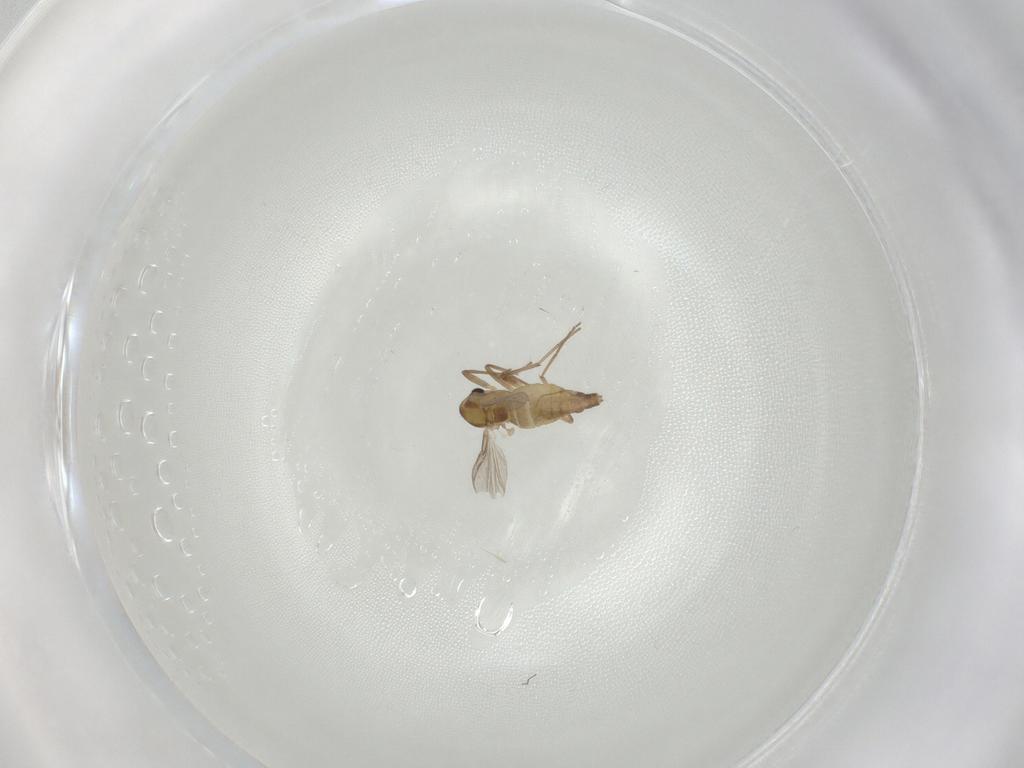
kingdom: Animalia
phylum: Arthropoda
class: Insecta
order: Diptera
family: Chironomidae
